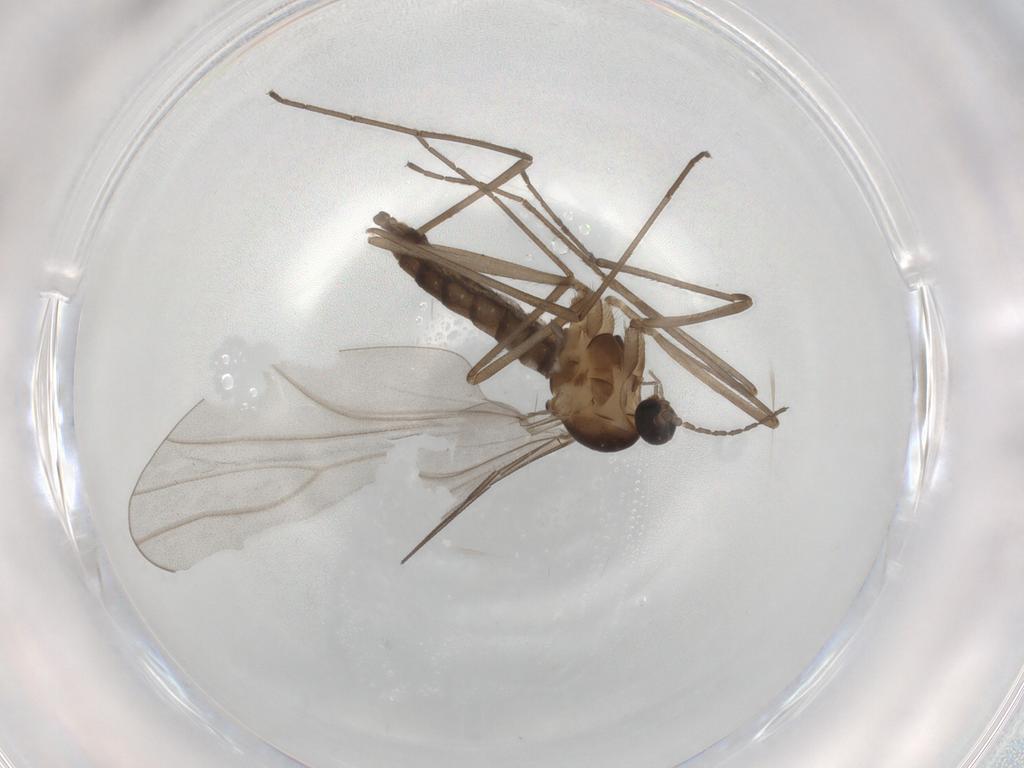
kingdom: Animalia
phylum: Arthropoda
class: Insecta
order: Diptera
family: Cecidomyiidae
